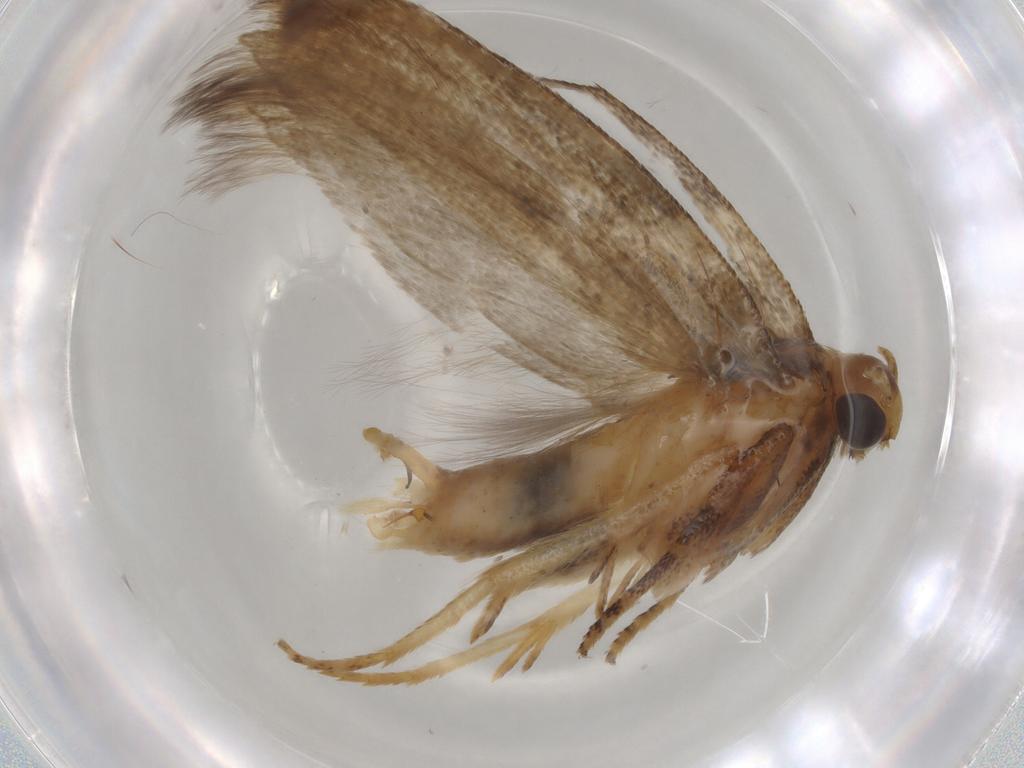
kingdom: Animalia
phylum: Arthropoda
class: Insecta
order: Lepidoptera
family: Gelechiidae
